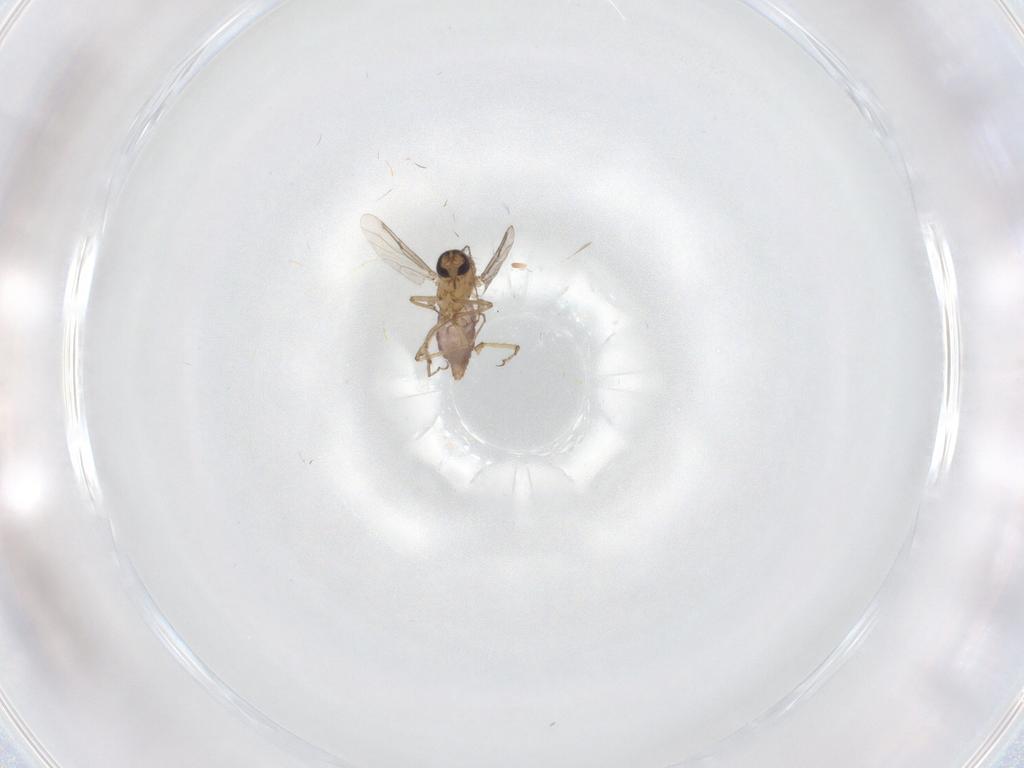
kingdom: Animalia
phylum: Arthropoda
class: Insecta
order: Diptera
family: Ceratopogonidae
